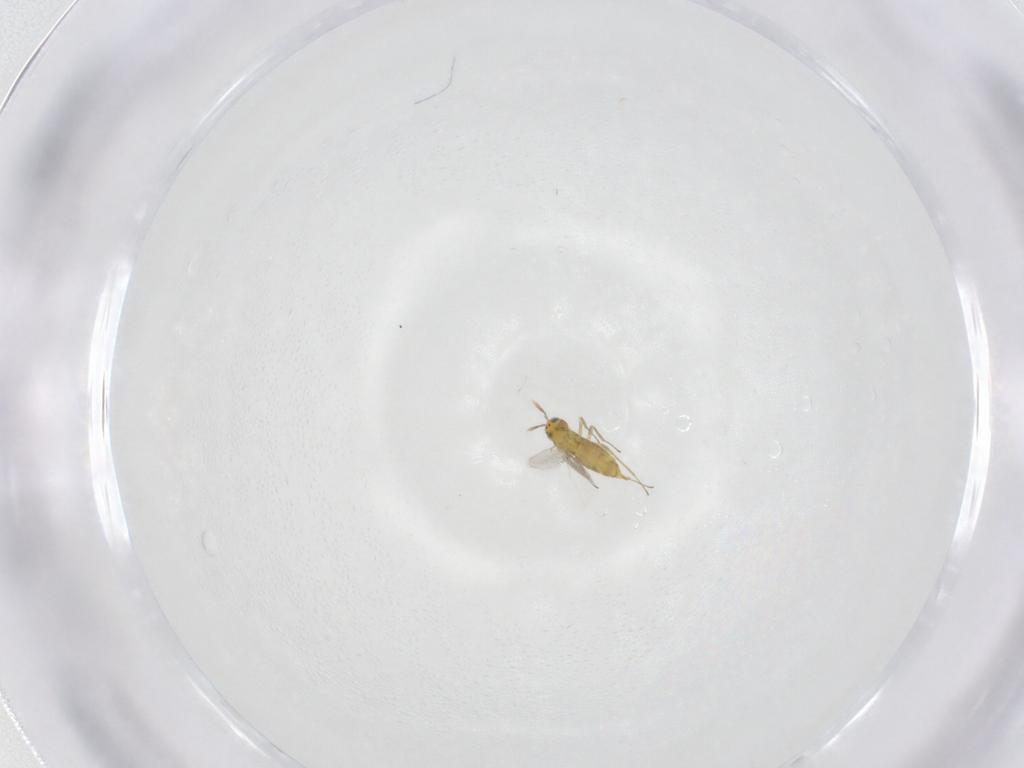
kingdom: Animalia
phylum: Arthropoda
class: Insecta
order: Hymenoptera
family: Aphelinidae
